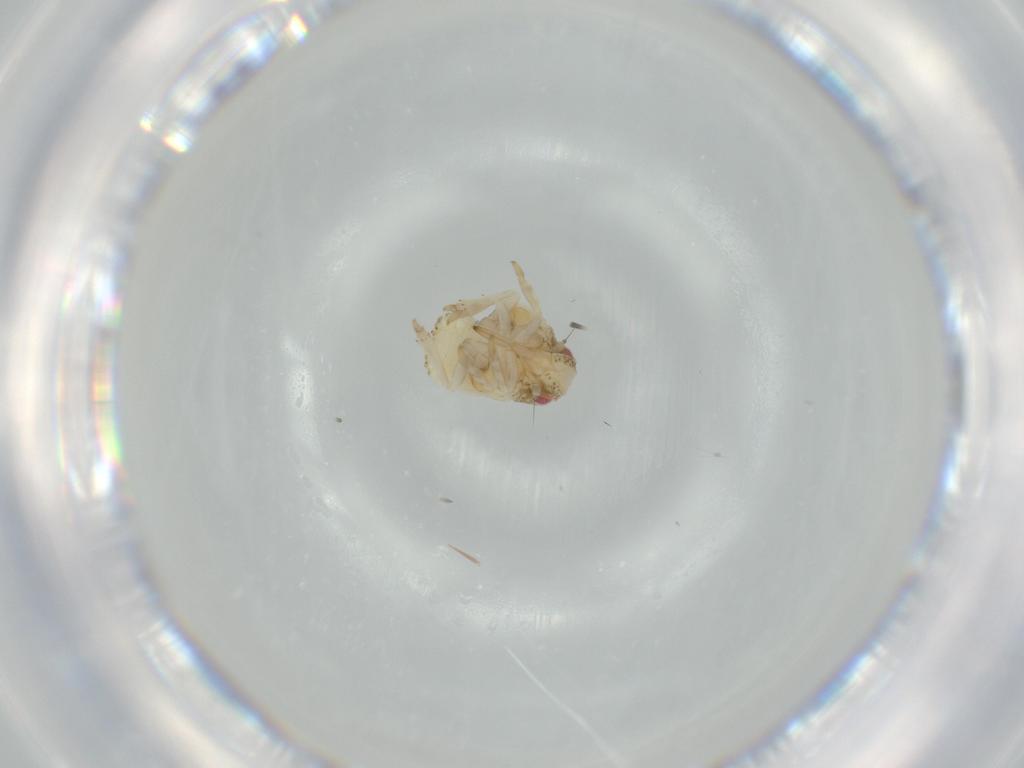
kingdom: Animalia
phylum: Arthropoda
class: Insecta
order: Hemiptera
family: Acanaloniidae
